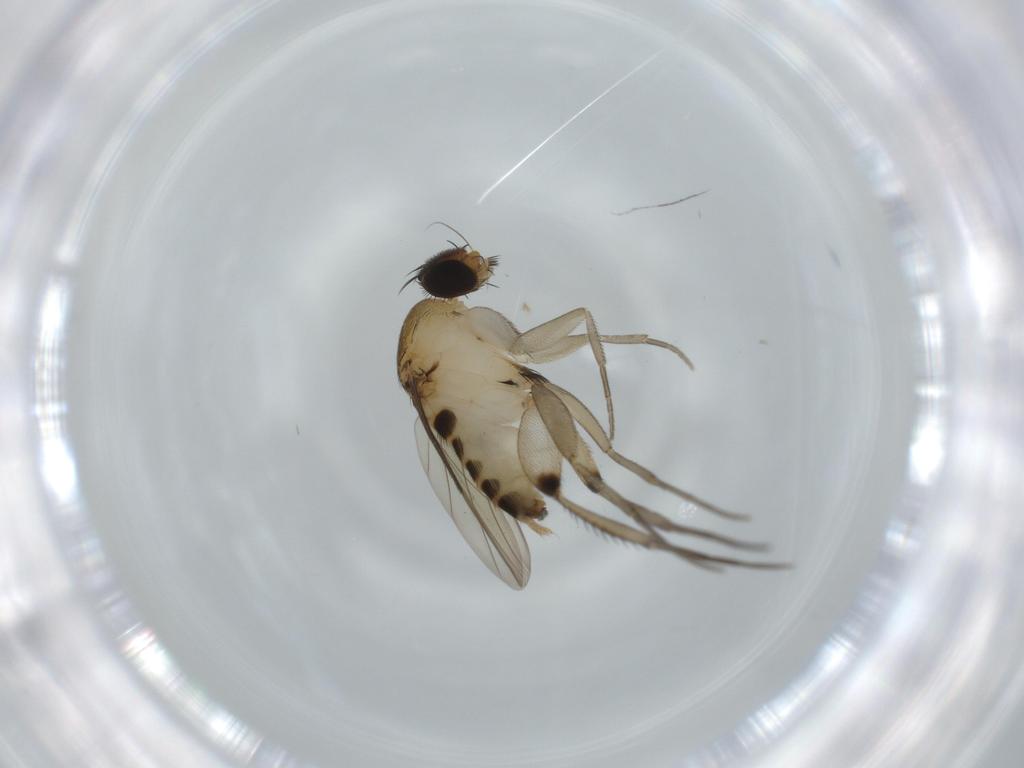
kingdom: Animalia
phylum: Arthropoda
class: Insecta
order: Diptera
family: Phoridae
